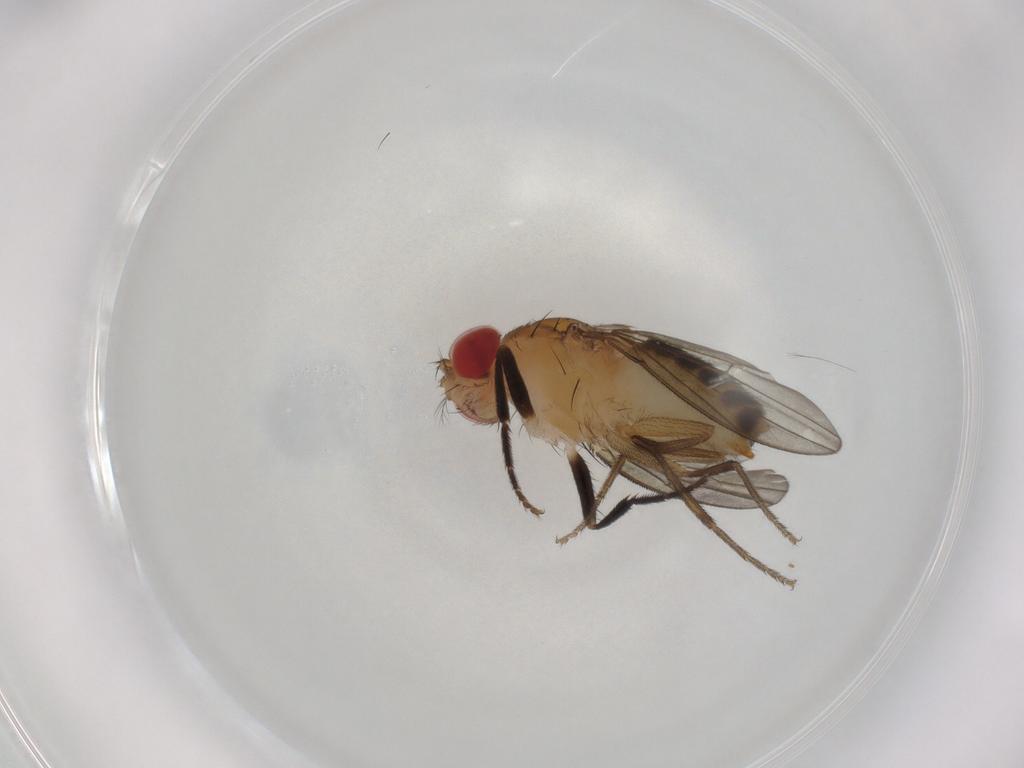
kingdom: Animalia
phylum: Arthropoda
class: Insecta
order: Diptera
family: Drosophilidae
